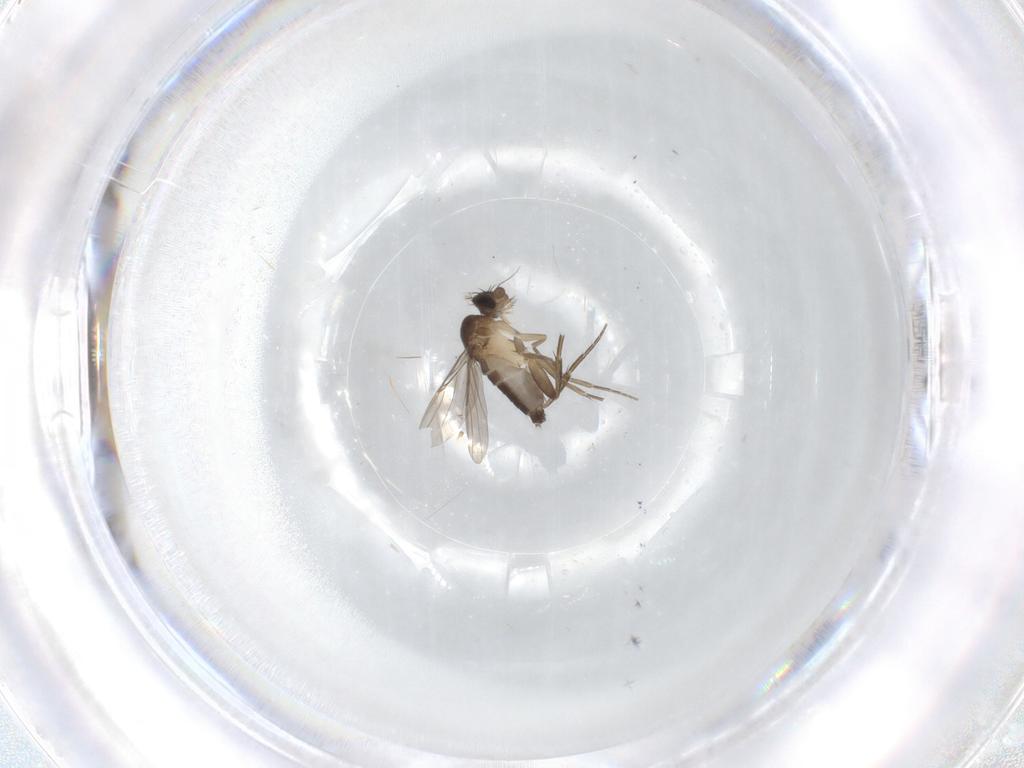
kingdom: Animalia
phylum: Arthropoda
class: Insecta
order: Diptera
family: Phoridae
